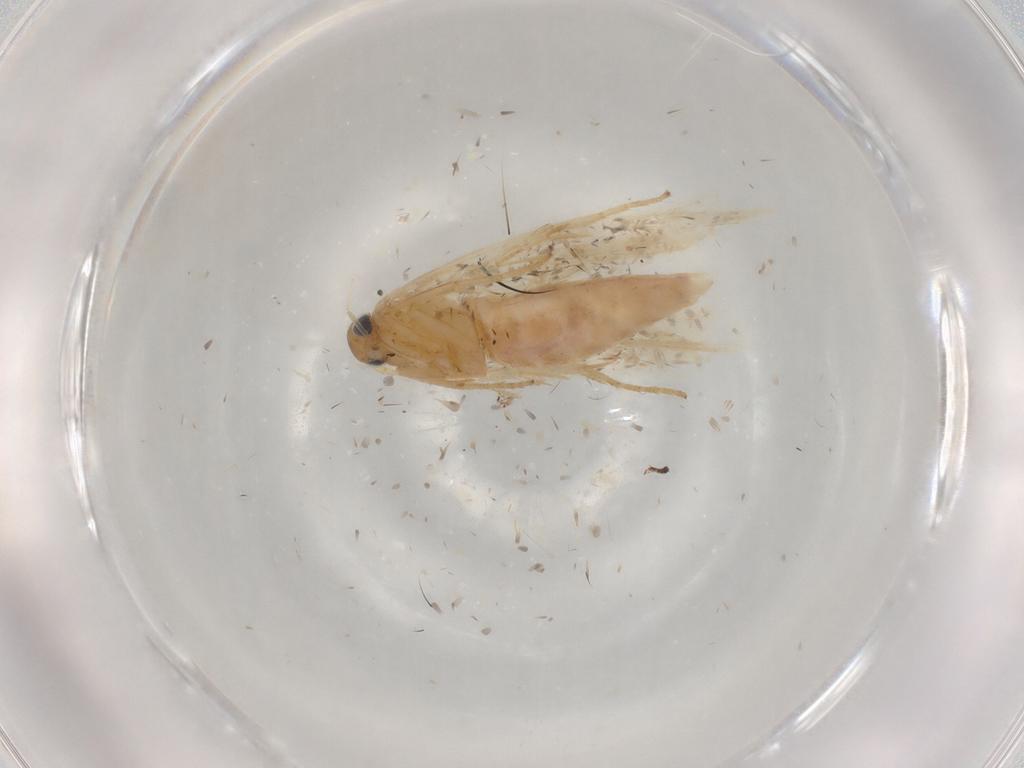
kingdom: Animalia
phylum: Arthropoda
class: Insecta
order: Lepidoptera
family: Gelechiidae
